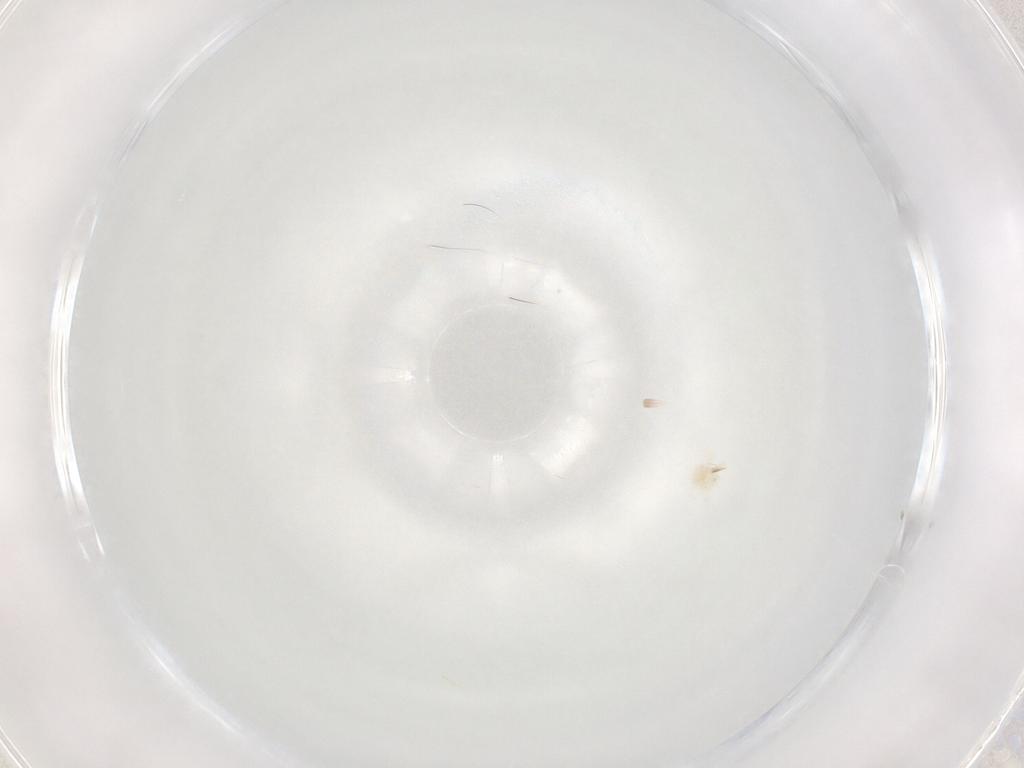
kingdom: Animalia
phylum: Arthropoda
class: Arachnida
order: Trombidiformes
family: Anystidae
